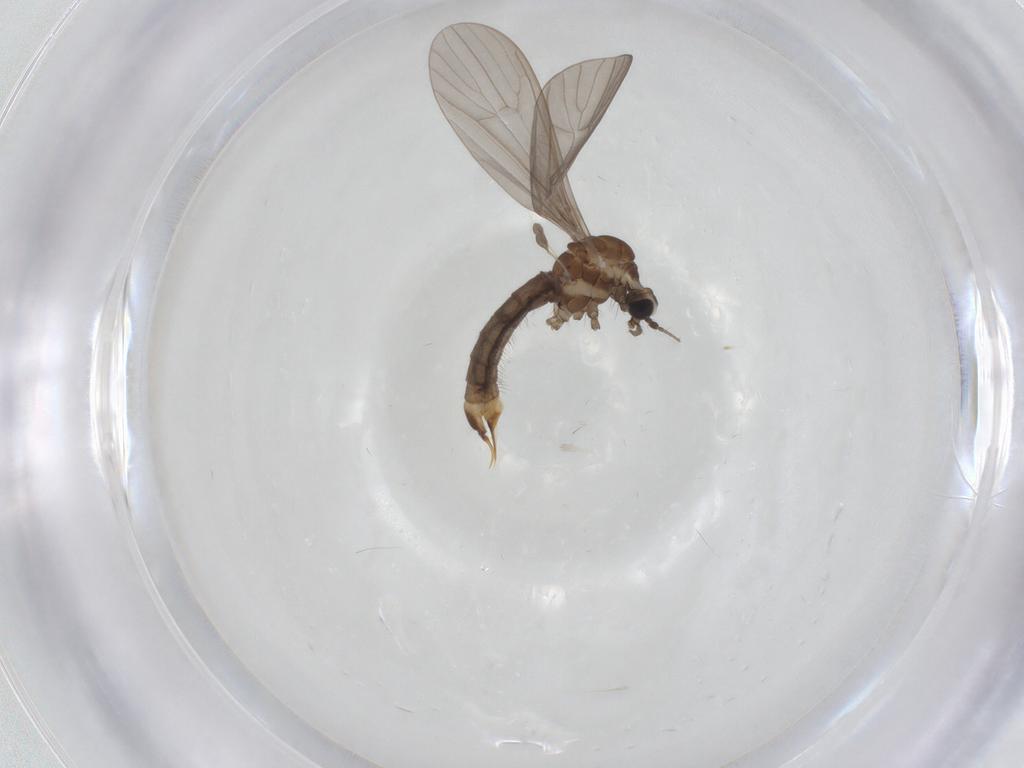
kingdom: Animalia
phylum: Arthropoda
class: Insecta
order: Diptera
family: Limoniidae
